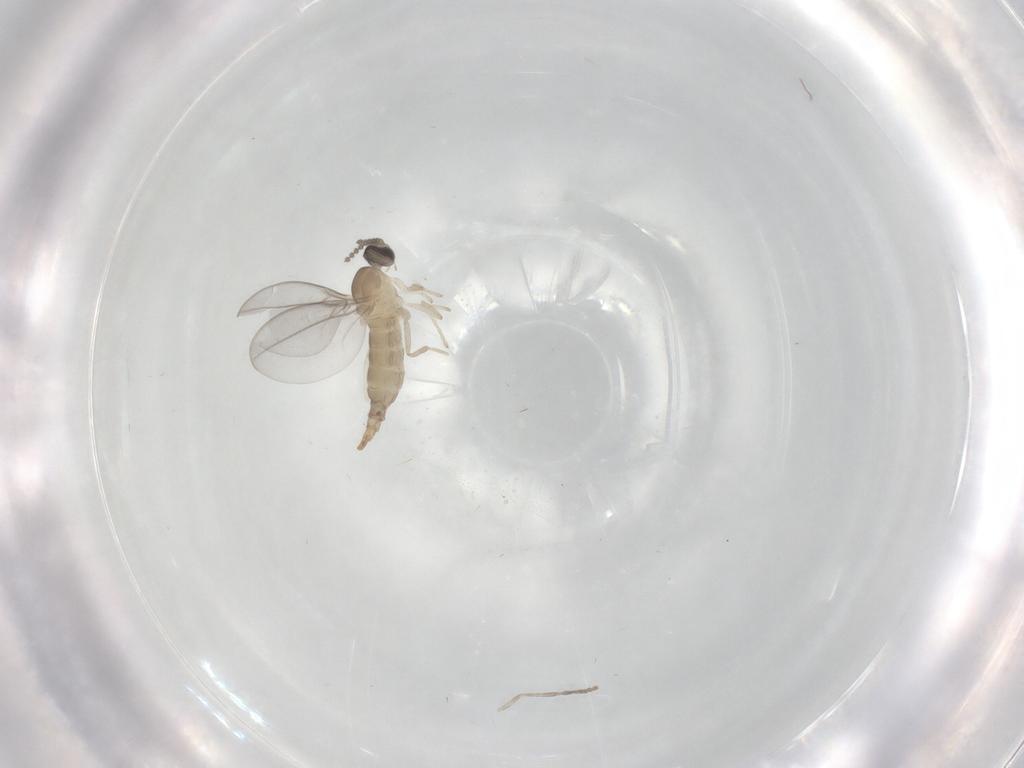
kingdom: Animalia
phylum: Arthropoda
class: Insecta
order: Diptera
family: Psychodidae
